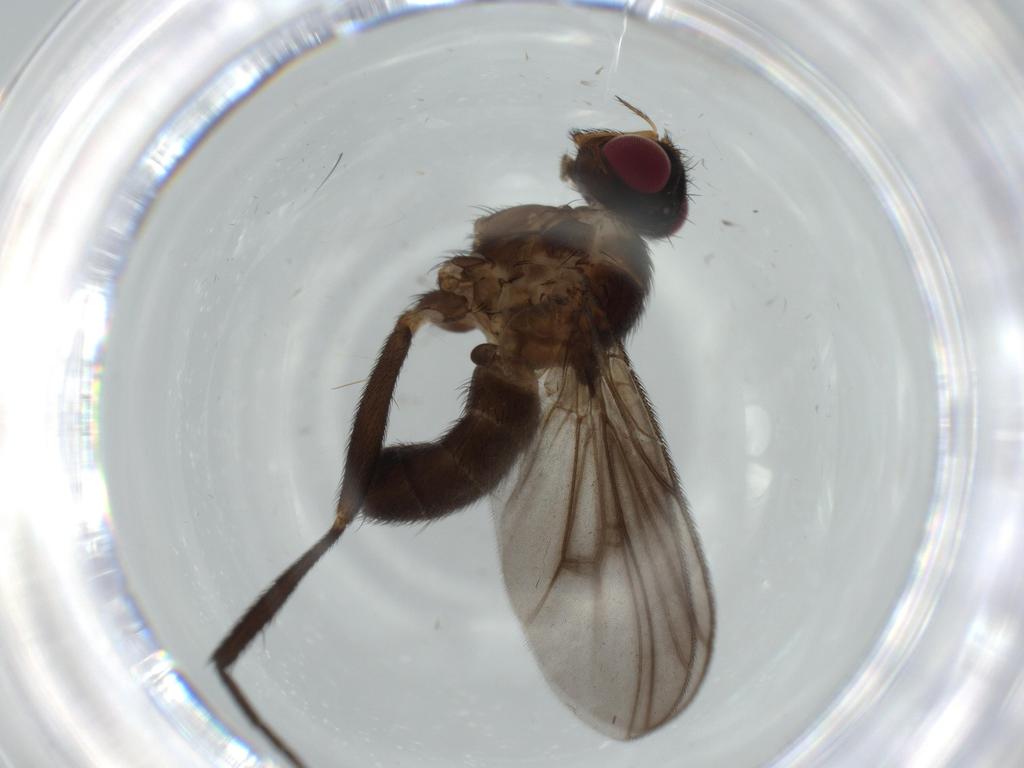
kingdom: Animalia
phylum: Arthropoda
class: Insecta
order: Diptera
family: Calliphoridae
